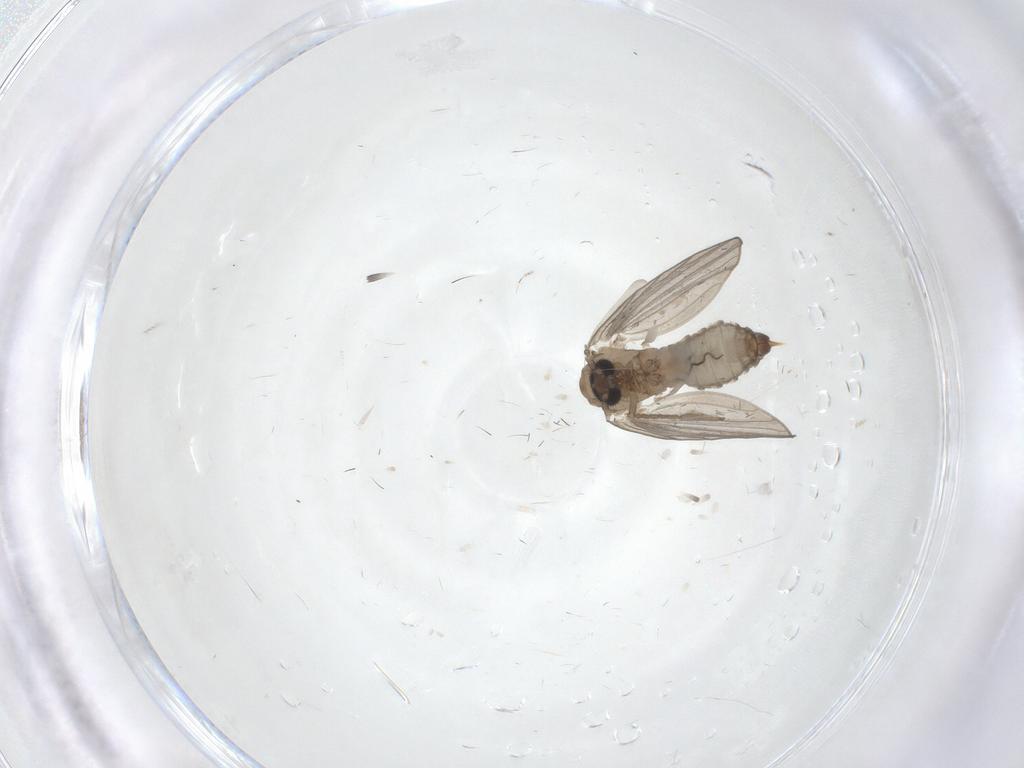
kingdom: Animalia
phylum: Arthropoda
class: Insecta
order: Diptera
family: Psychodidae
